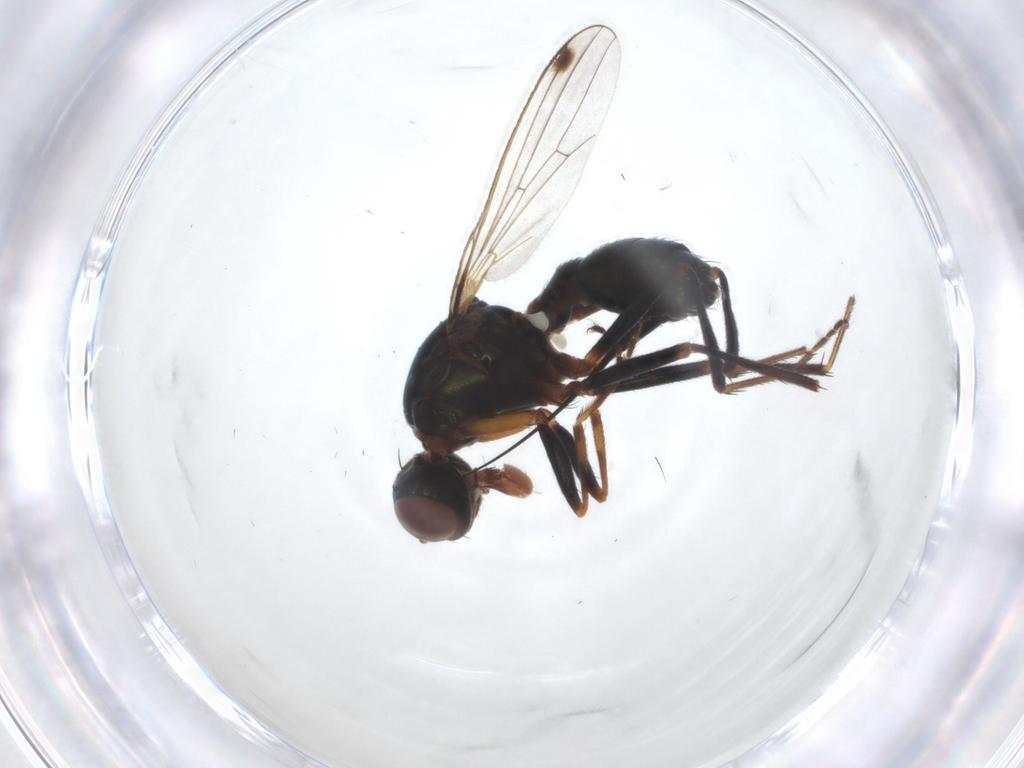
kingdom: Animalia
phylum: Arthropoda
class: Insecta
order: Diptera
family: Sepsidae
